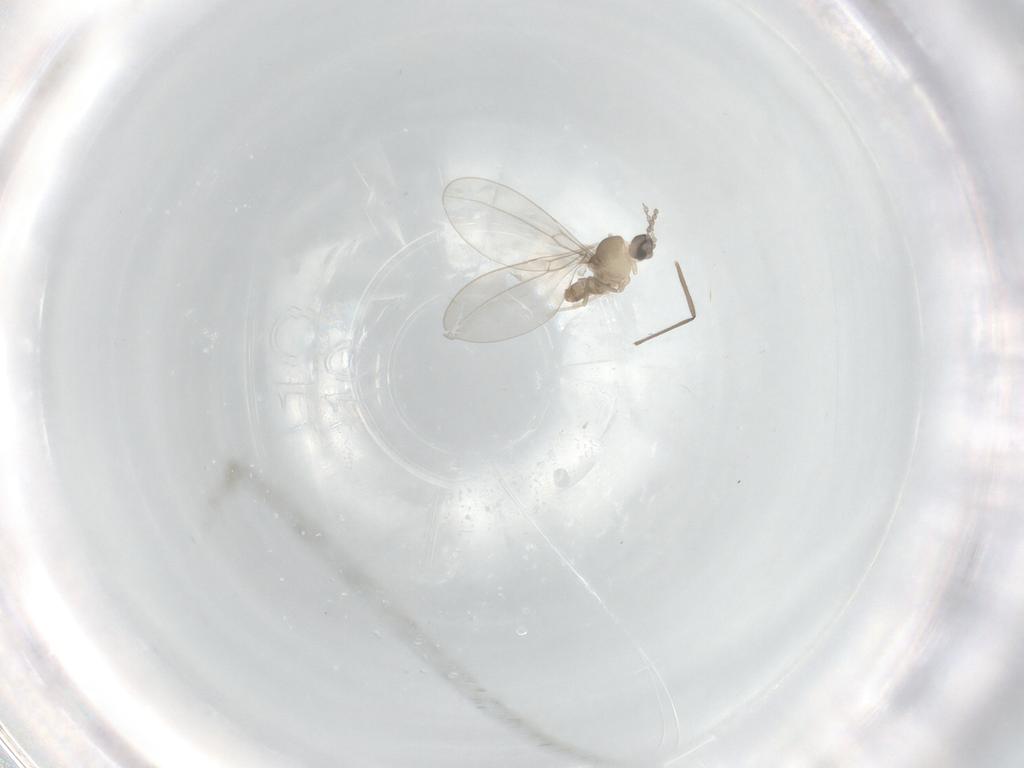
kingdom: Animalia
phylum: Arthropoda
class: Insecta
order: Diptera
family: Cecidomyiidae
